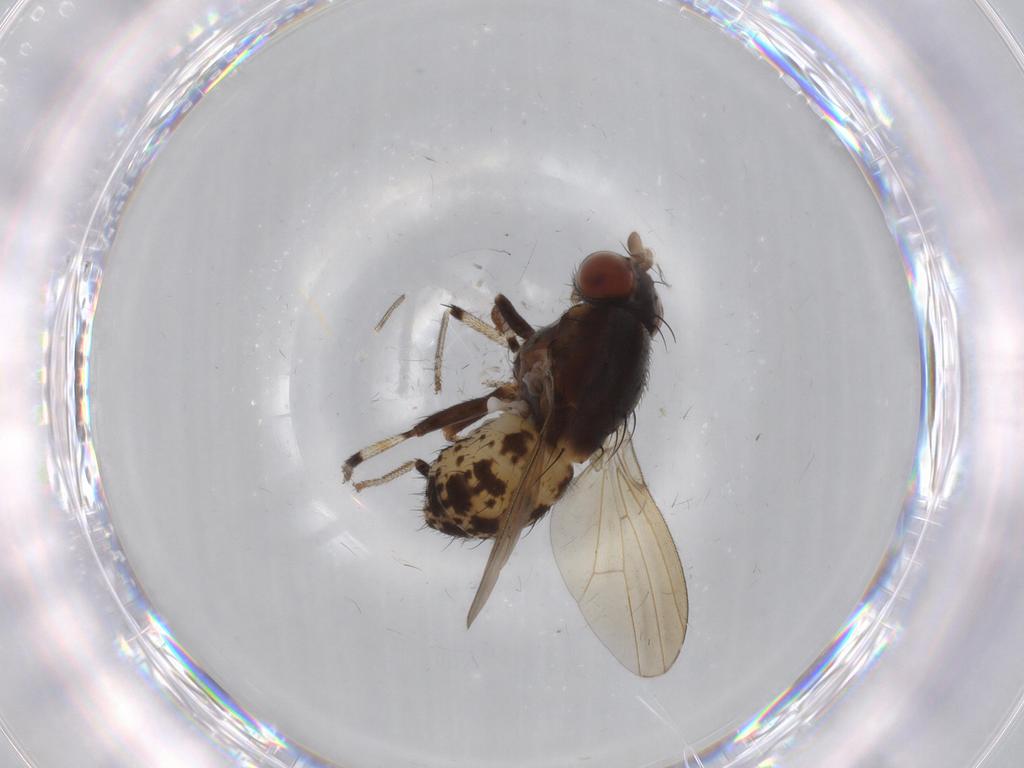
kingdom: Animalia
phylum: Arthropoda
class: Insecta
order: Diptera
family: Ceratopogonidae
